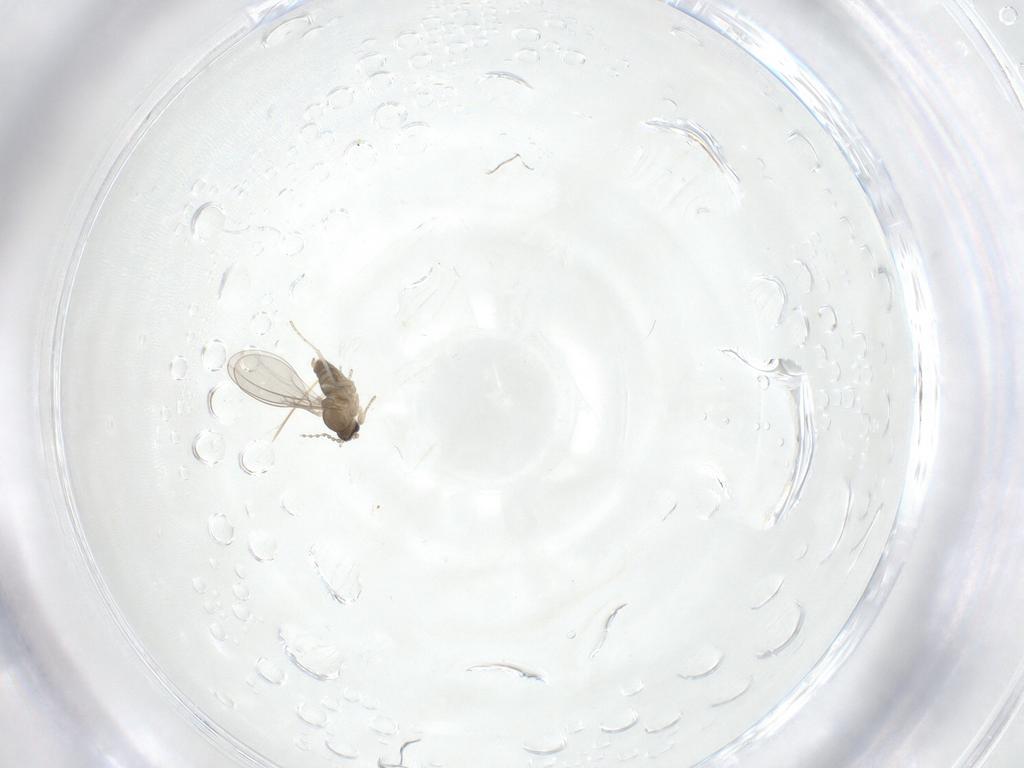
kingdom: Animalia
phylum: Arthropoda
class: Insecta
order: Diptera
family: Cecidomyiidae
